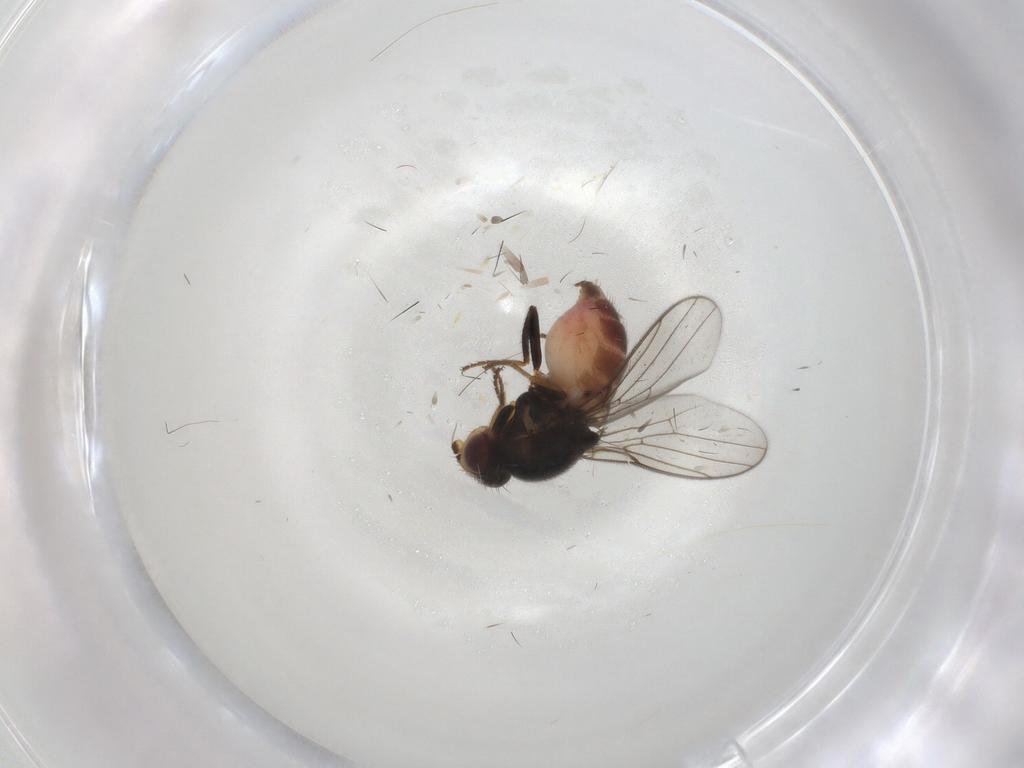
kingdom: Animalia
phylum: Arthropoda
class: Insecta
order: Diptera
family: Chloropidae
